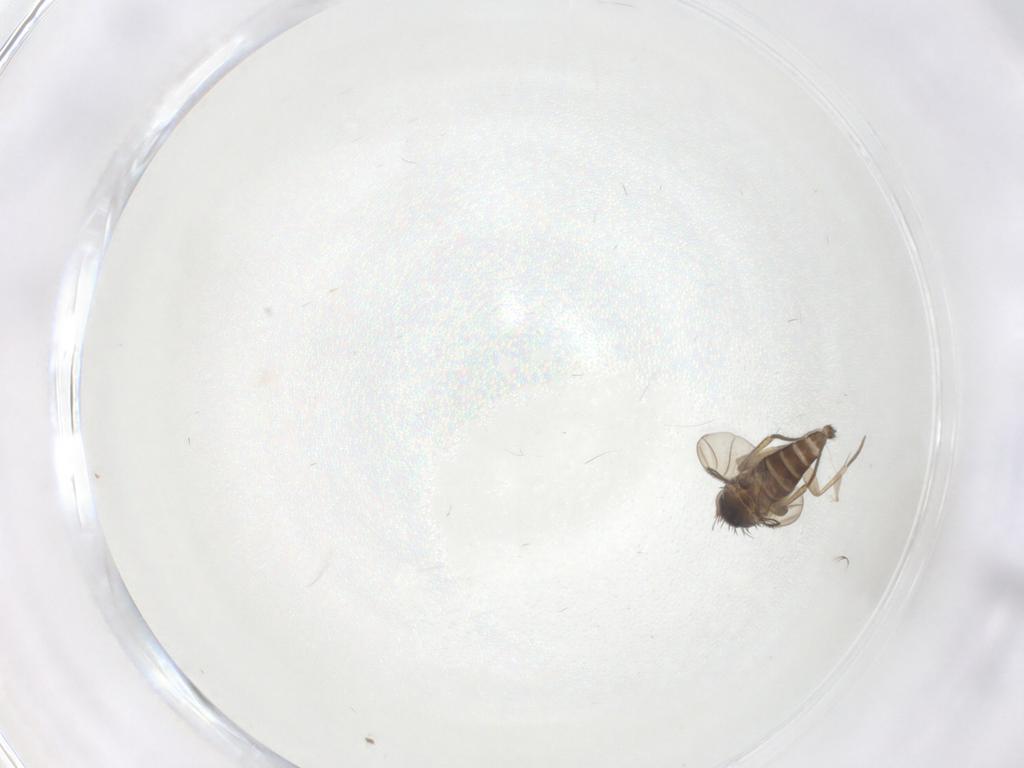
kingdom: Animalia
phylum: Arthropoda
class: Insecta
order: Diptera
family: Phoridae
